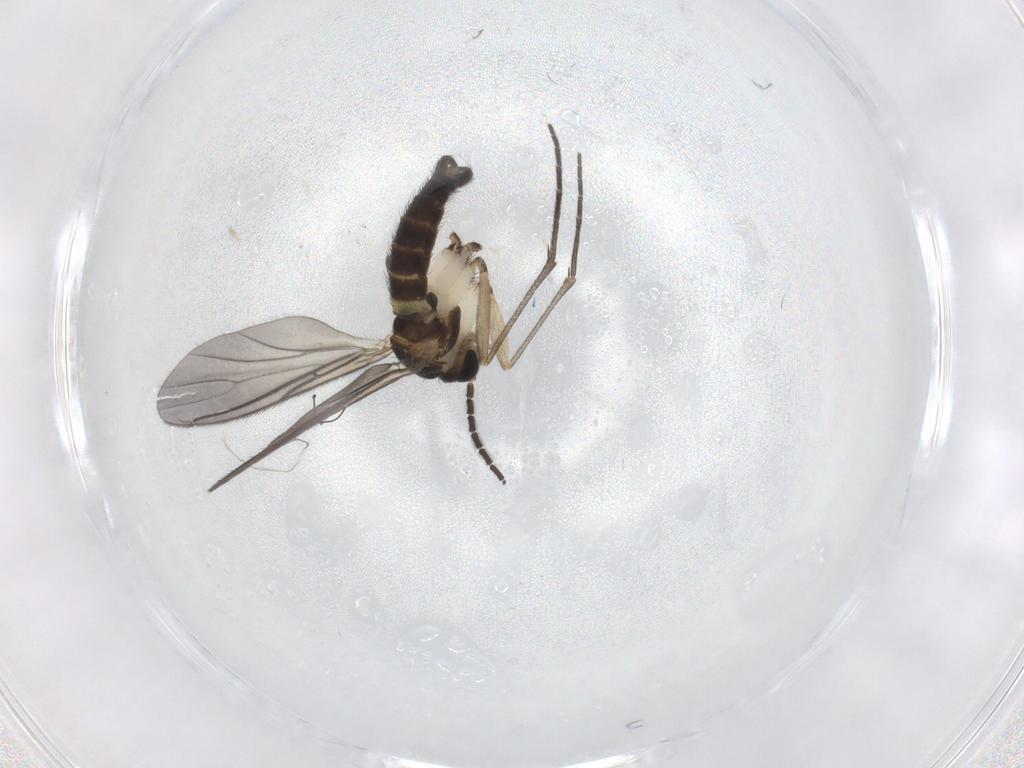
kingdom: Animalia
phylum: Arthropoda
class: Insecta
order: Diptera
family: Sciaridae
